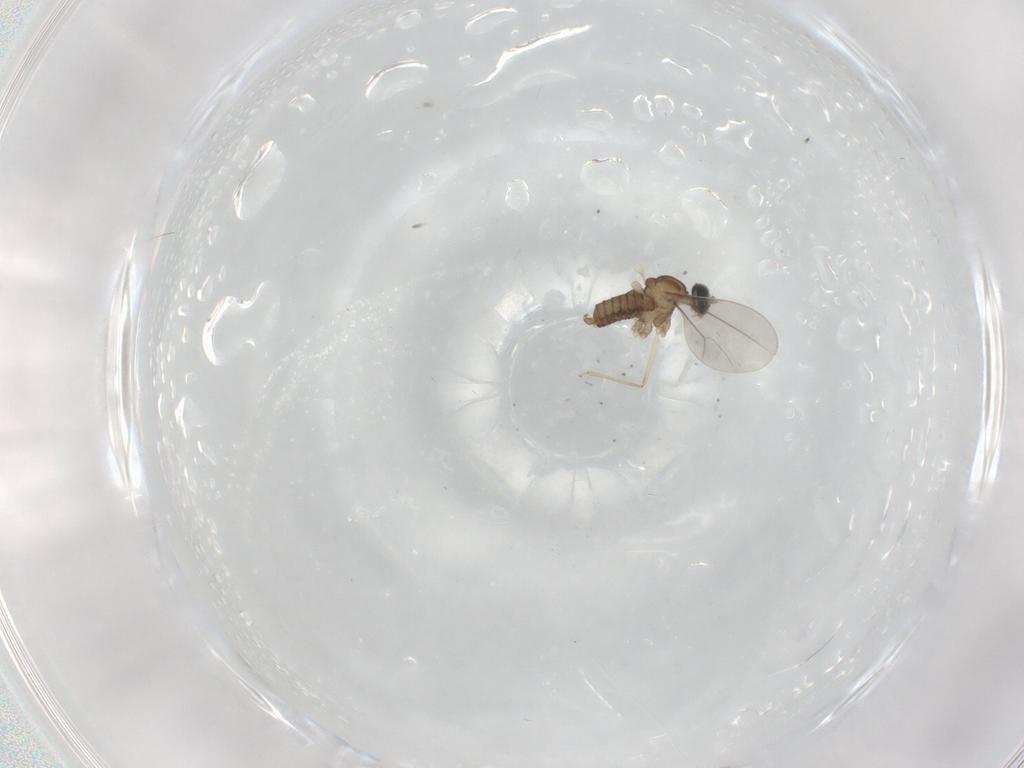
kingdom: Animalia
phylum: Arthropoda
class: Insecta
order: Diptera
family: Cecidomyiidae
